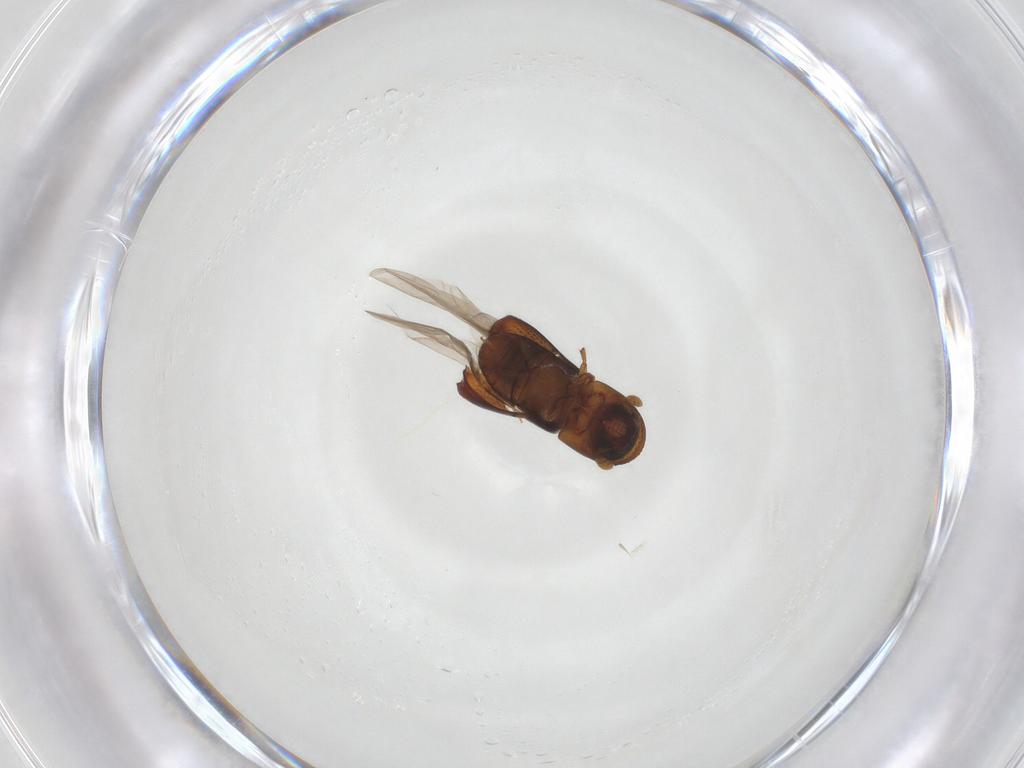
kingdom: Animalia
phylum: Arthropoda
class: Insecta
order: Coleoptera
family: Curculionidae
